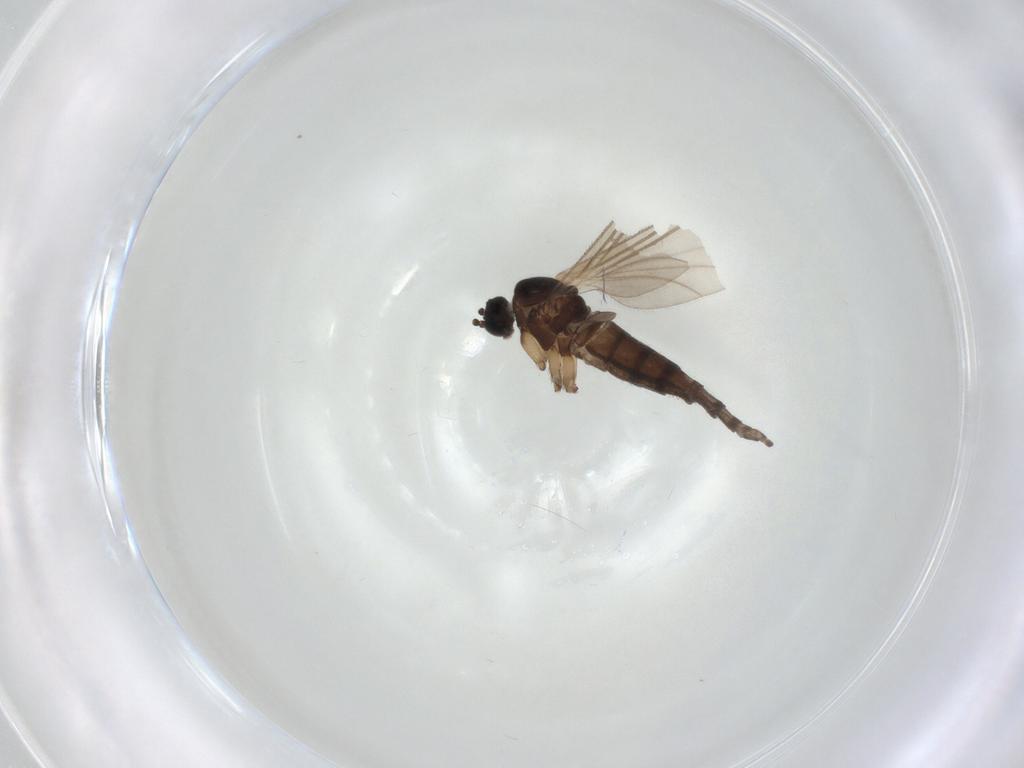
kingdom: Animalia
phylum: Arthropoda
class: Insecta
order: Diptera
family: Sciaridae
